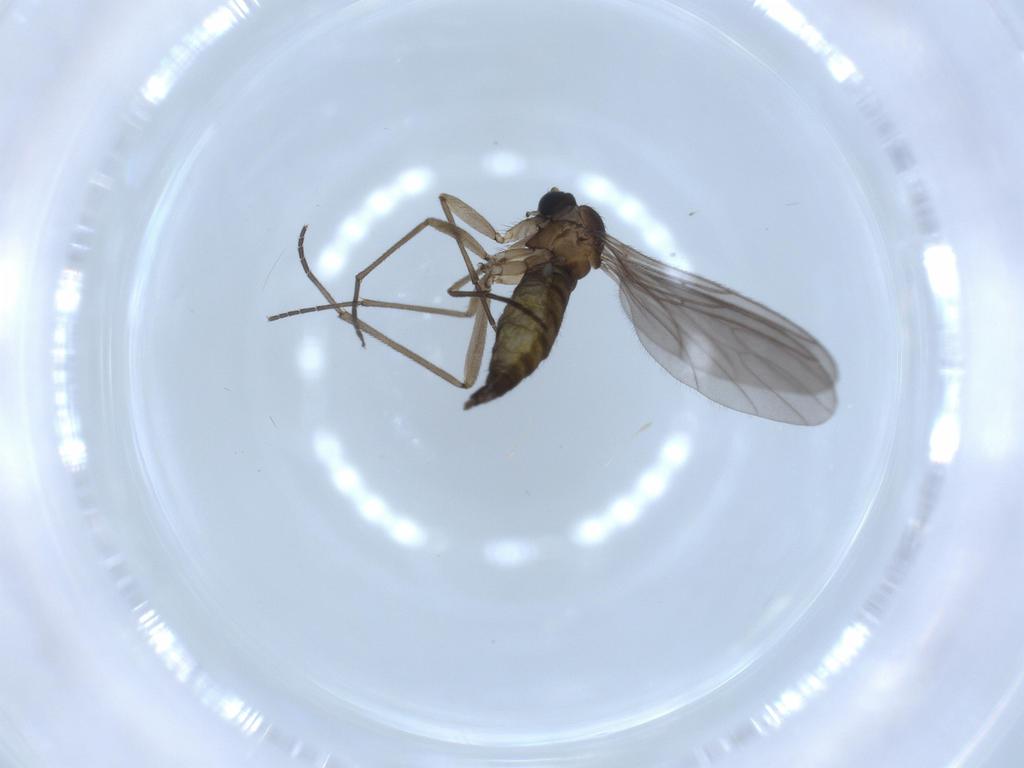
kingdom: Animalia
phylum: Arthropoda
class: Insecta
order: Diptera
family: Sciaridae
